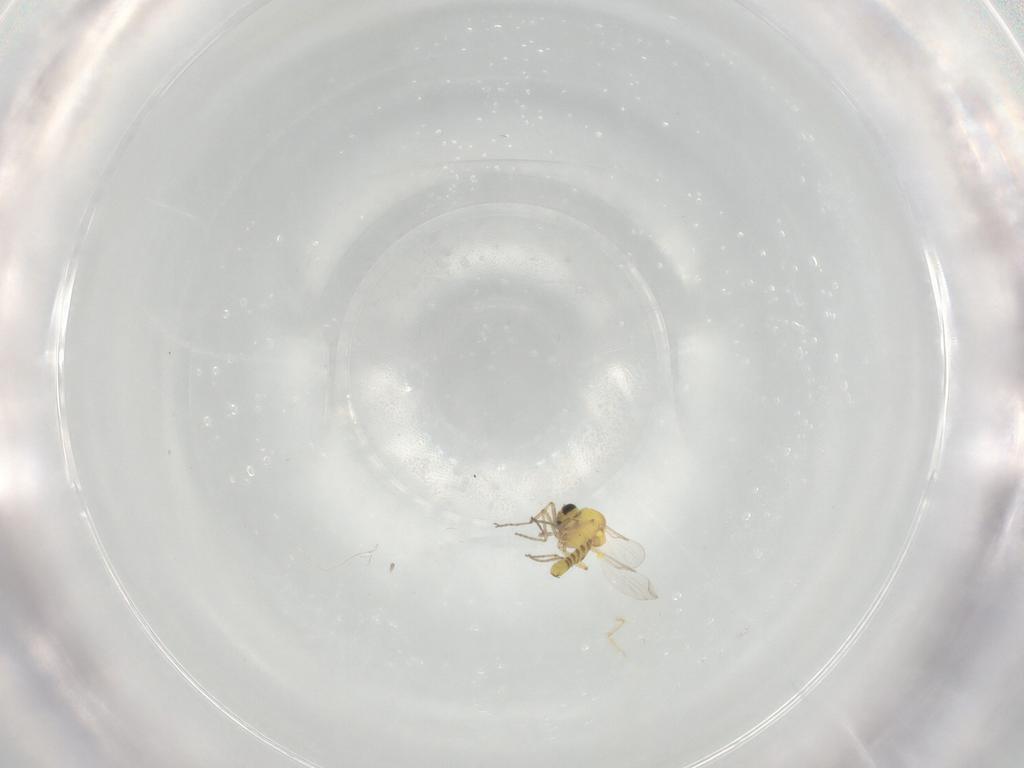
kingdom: Animalia
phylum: Arthropoda
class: Insecta
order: Diptera
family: Ceratopogonidae
